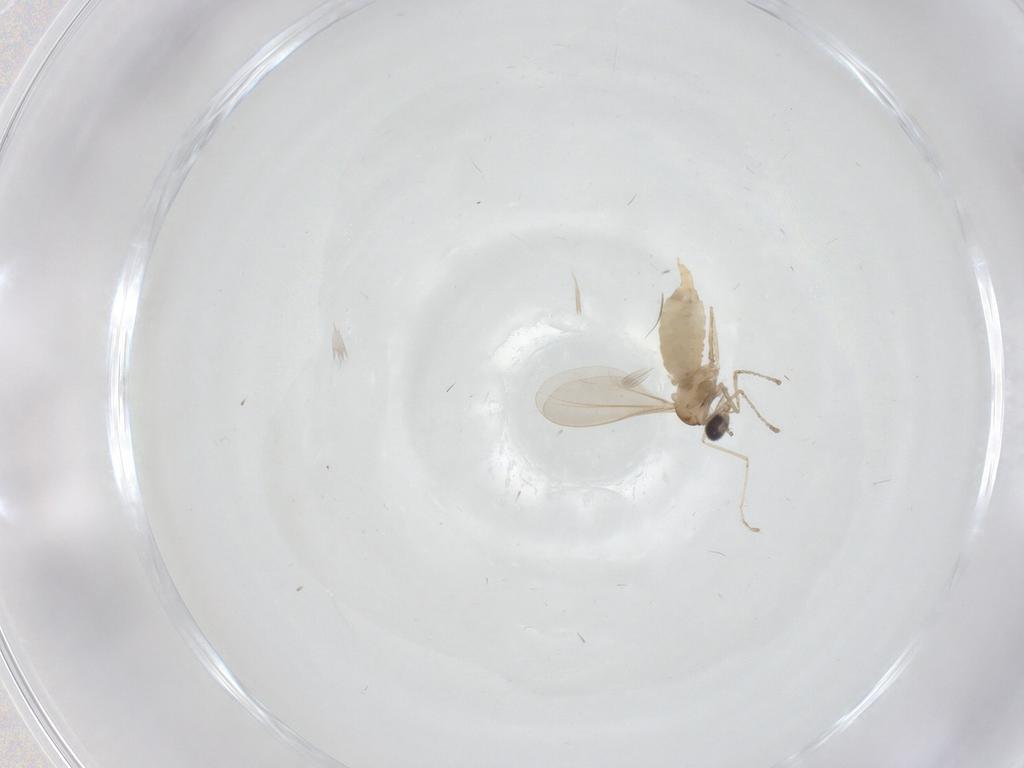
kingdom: Animalia
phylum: Arthropoda
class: Insecta
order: Diptera
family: Cecidomyiidae
